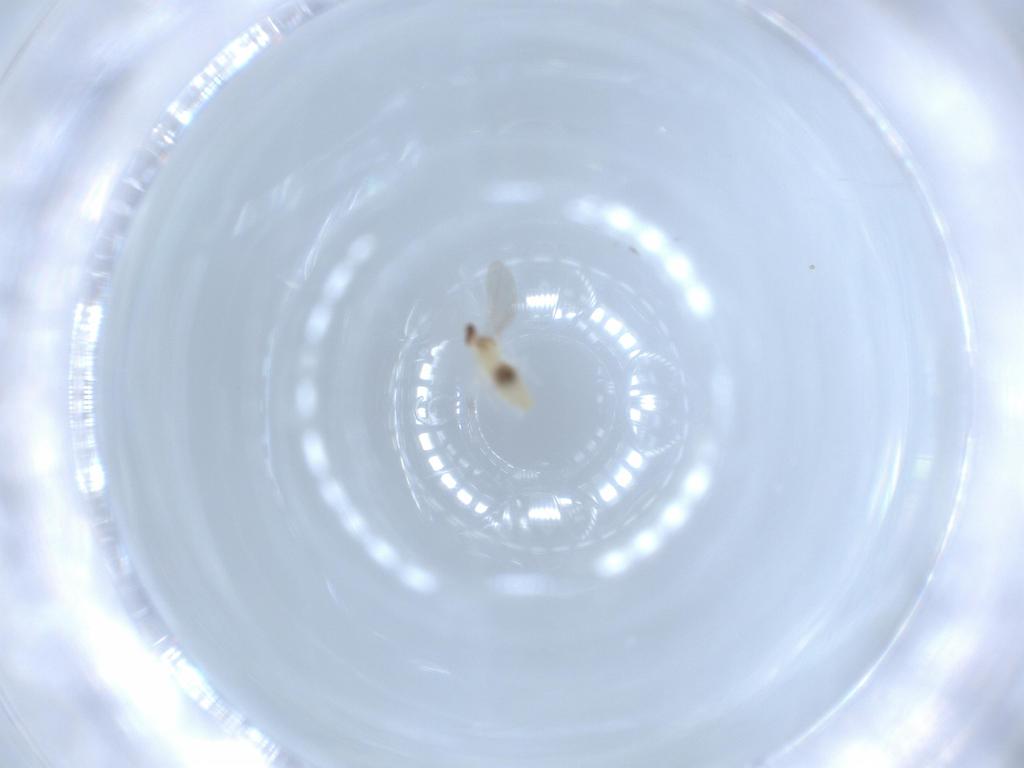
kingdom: Animalia
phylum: Arthropoda
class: Insecta
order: Diptera
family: Cecidomyiidae
